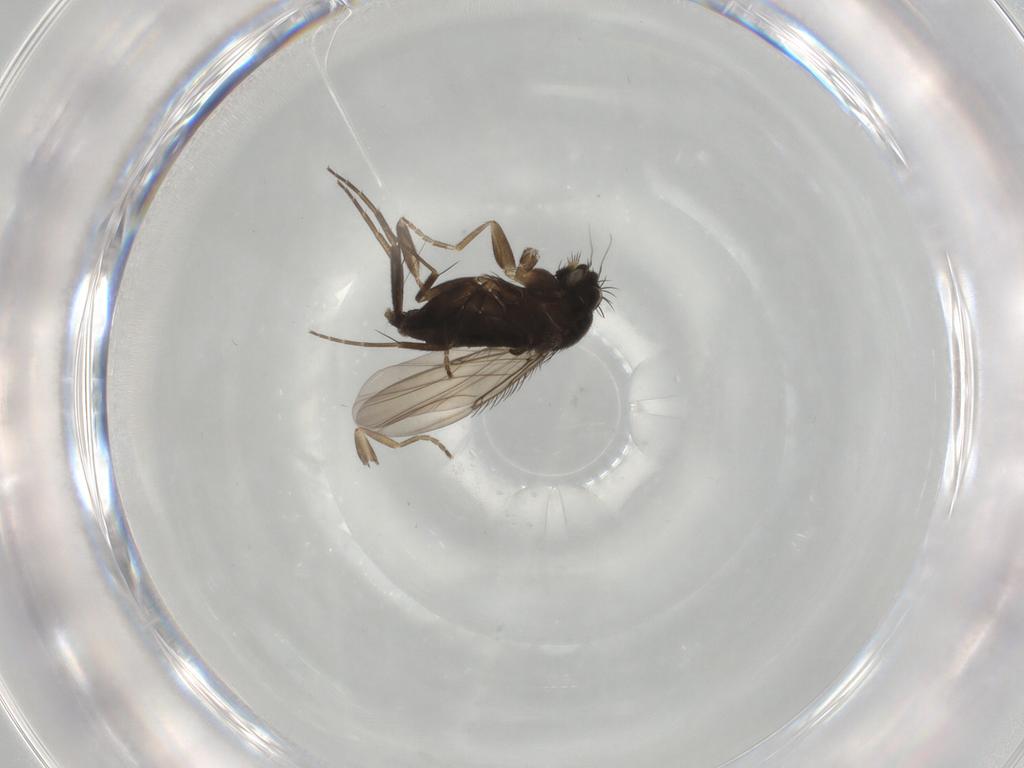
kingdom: Animalia
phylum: Arthropoda
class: Insecta
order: Diptera
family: Phoridae
